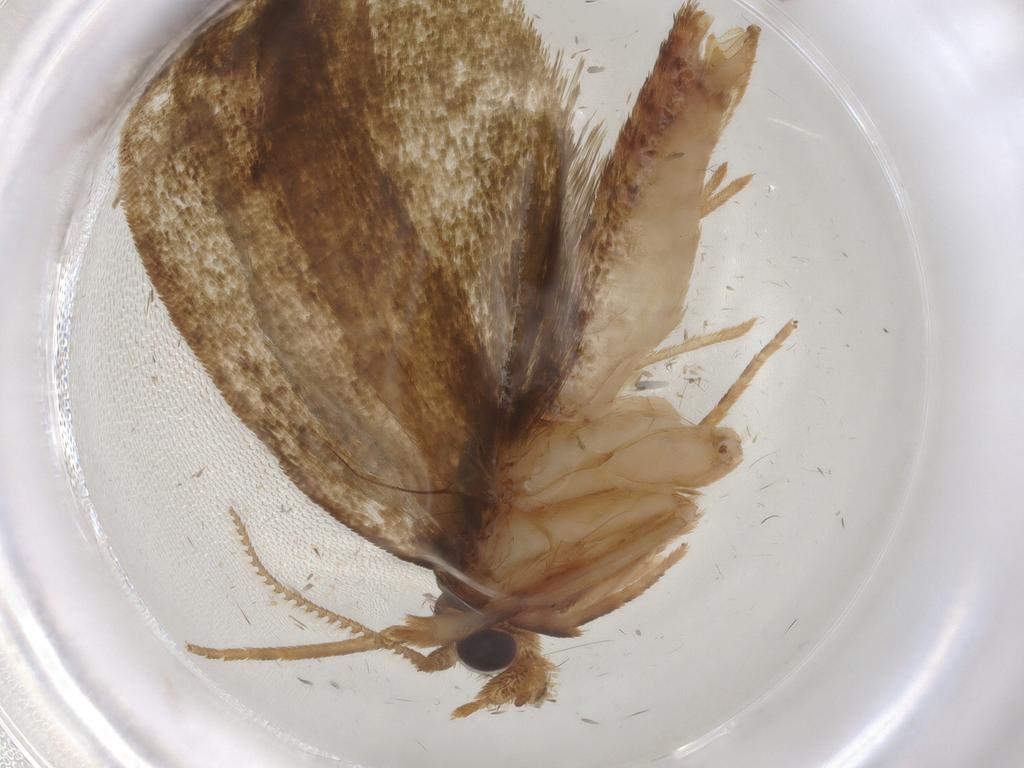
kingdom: Animalia
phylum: Arthropoda
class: Insecta
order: Lepidoptera
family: Geometridae
